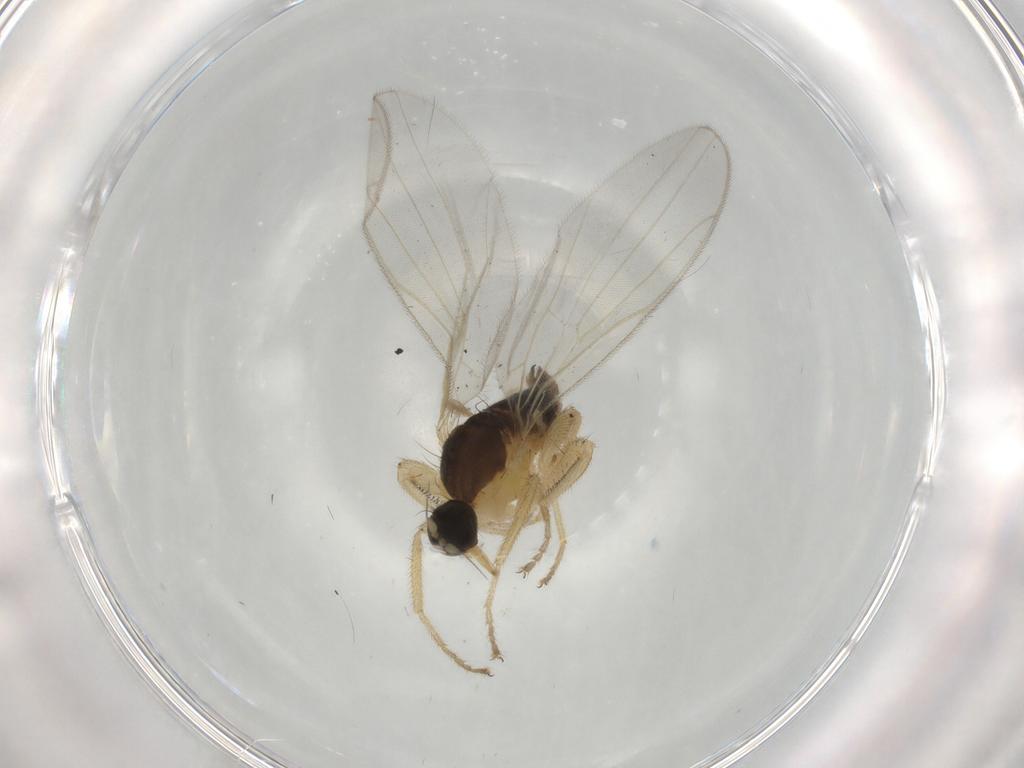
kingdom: Animalia
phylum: Arthropoda
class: Insecta
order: Diptera
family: Hybotidae
